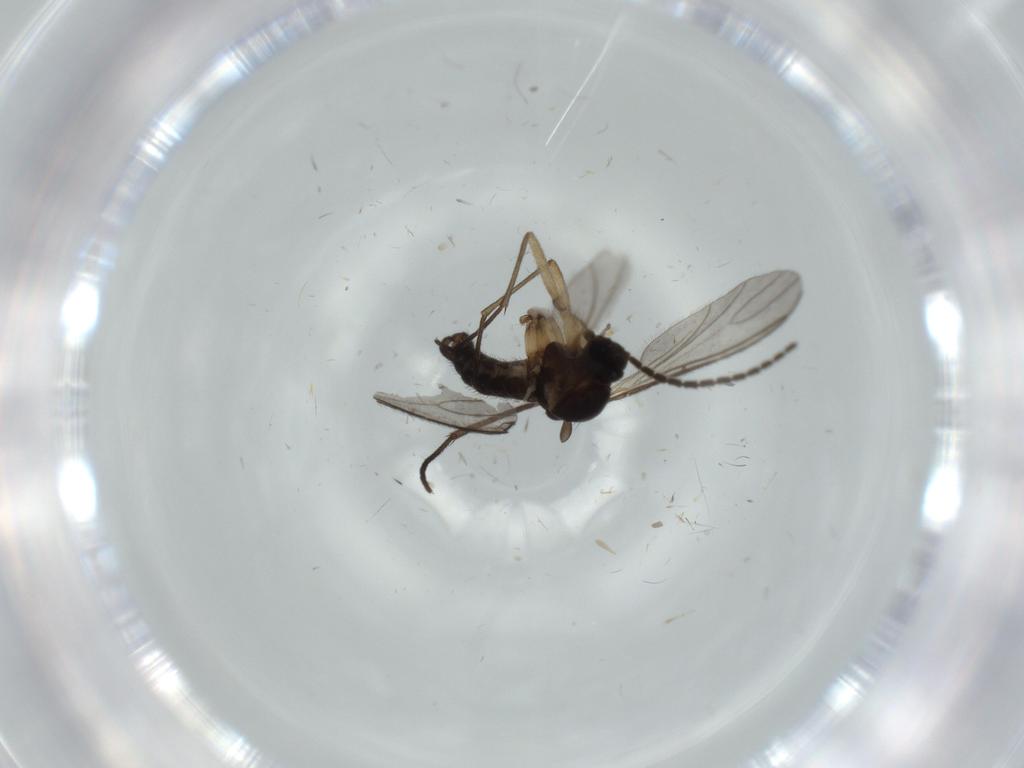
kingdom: Animalia
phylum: Arthropoda
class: Insecta
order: Diptera
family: Sciaridae
